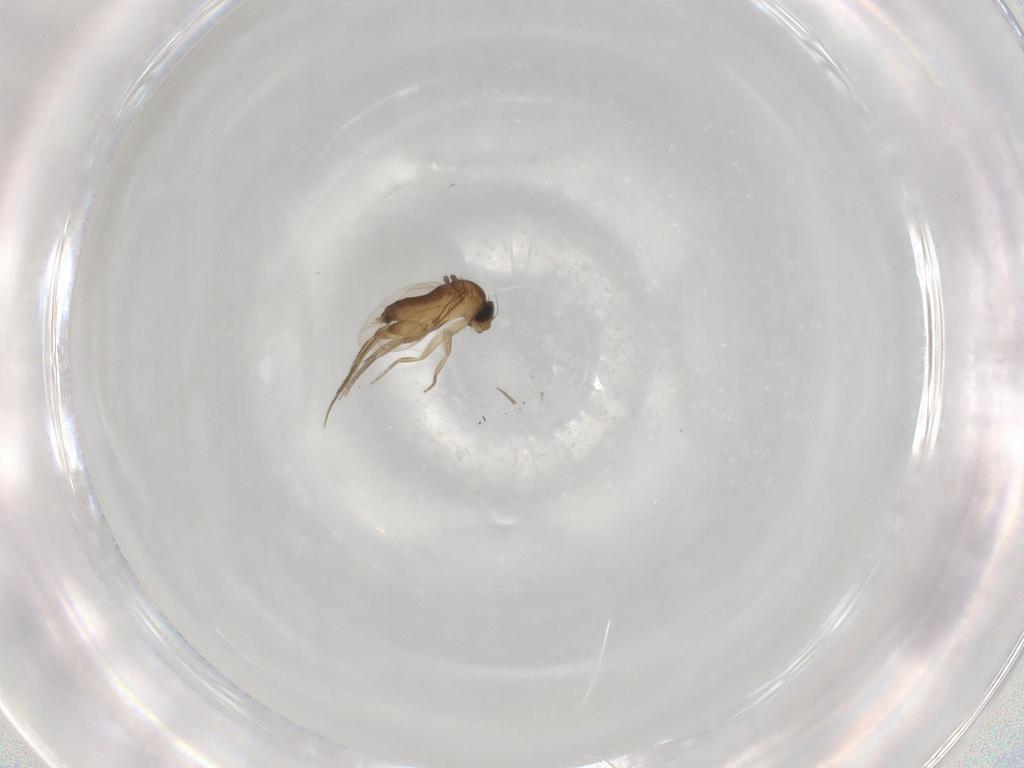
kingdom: Animalia
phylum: Arthropoda
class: Insecta
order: Diptera
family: Phoridae
